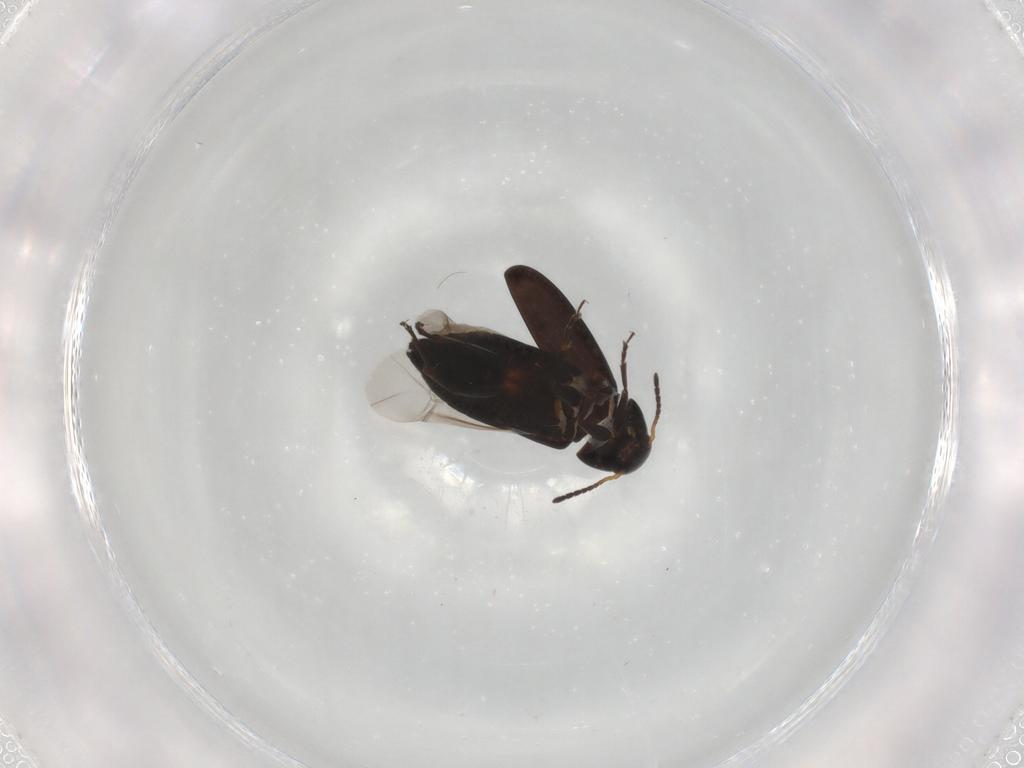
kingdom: Animalia
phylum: Arthropoda
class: Insecta
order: Coleoptera
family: Scraptiidae
